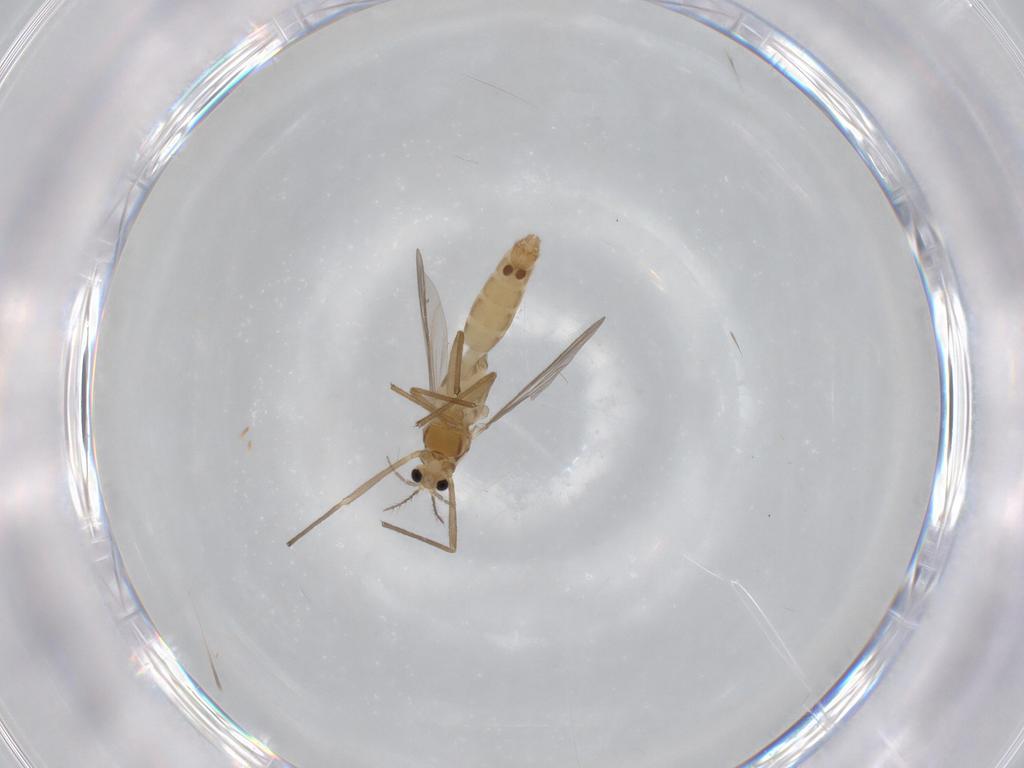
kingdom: Animalia
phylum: Arthropoda
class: Insecta
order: Diptera
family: Chironomidae
